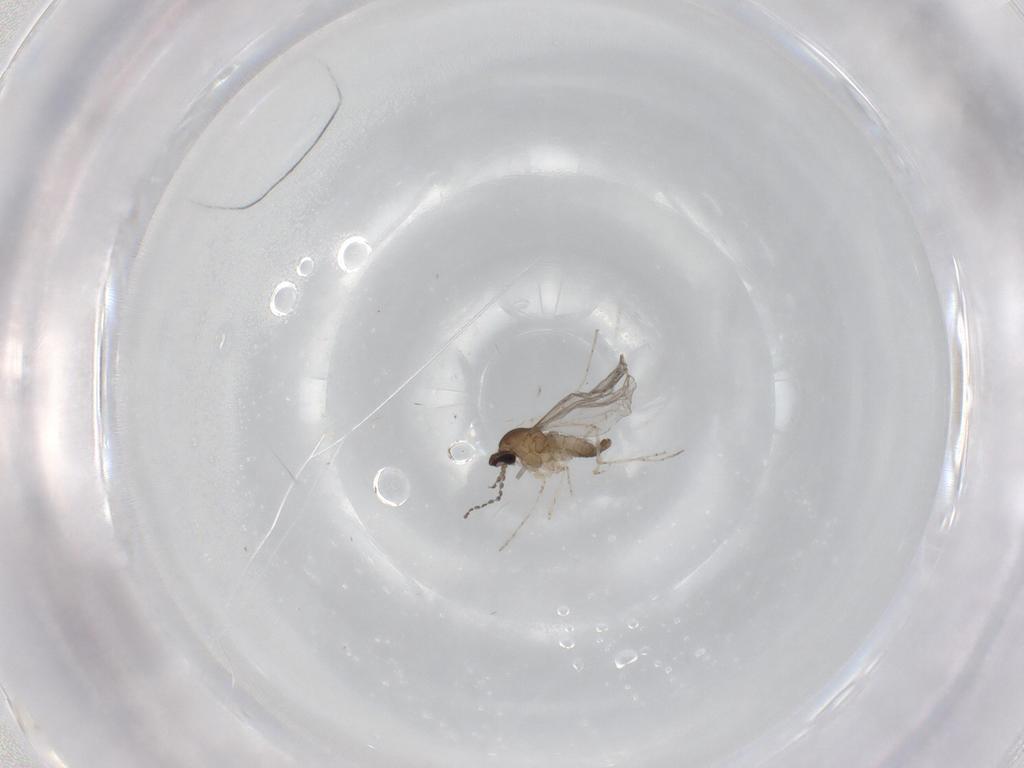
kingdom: Animalia
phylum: Arthropoda
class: Insecta
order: Diptera
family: Cecidomyiidae
